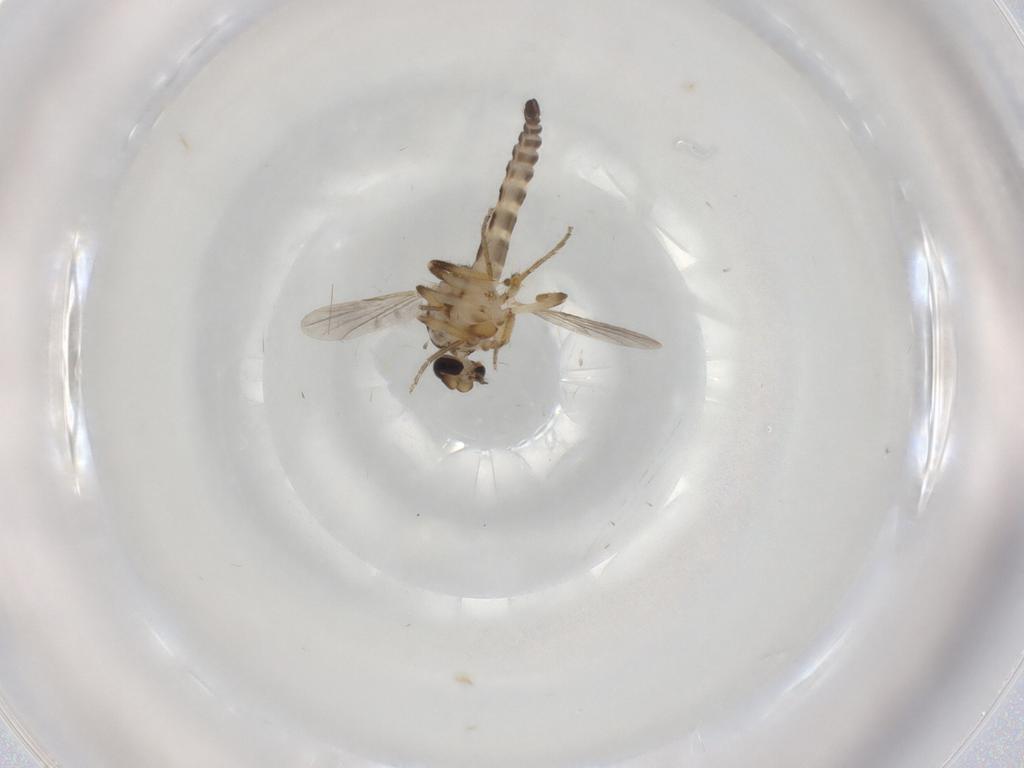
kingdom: Animalia
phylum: Arthropoda
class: Insecta
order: Diptera
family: Ceratopogonidae
